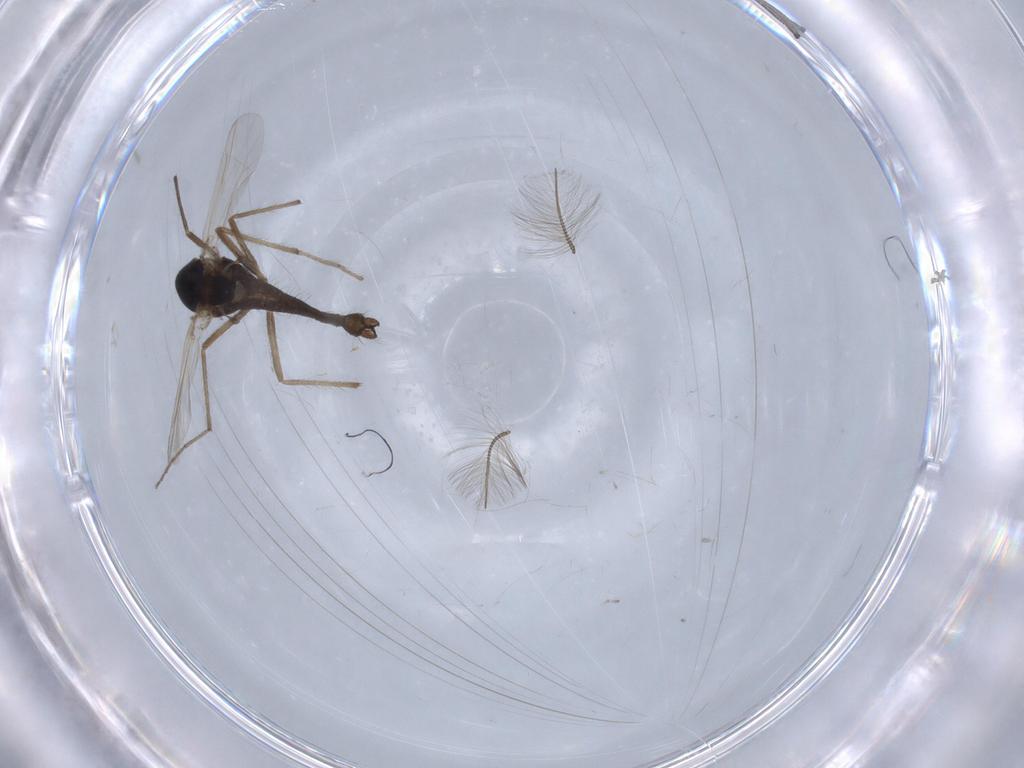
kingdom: Animalia
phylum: Arthropoda
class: Insecta
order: Diptera
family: Chironomidae
